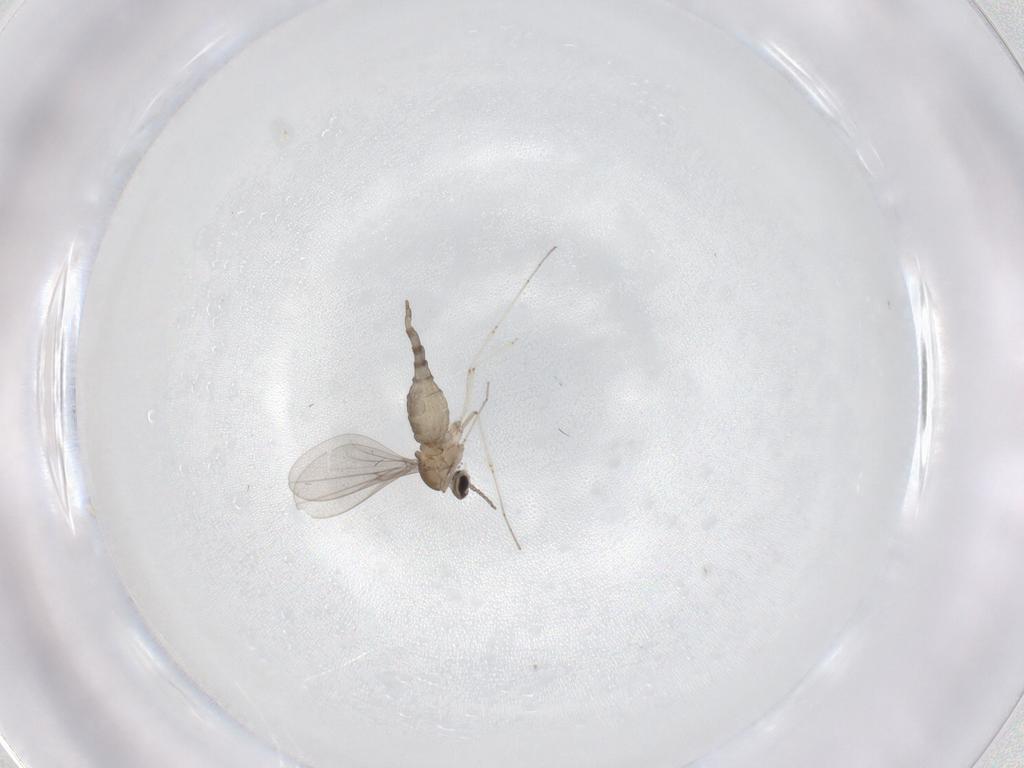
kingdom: Animalia
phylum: Arthropoda
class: Insecta
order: Diptera
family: Cecidomyiidae
